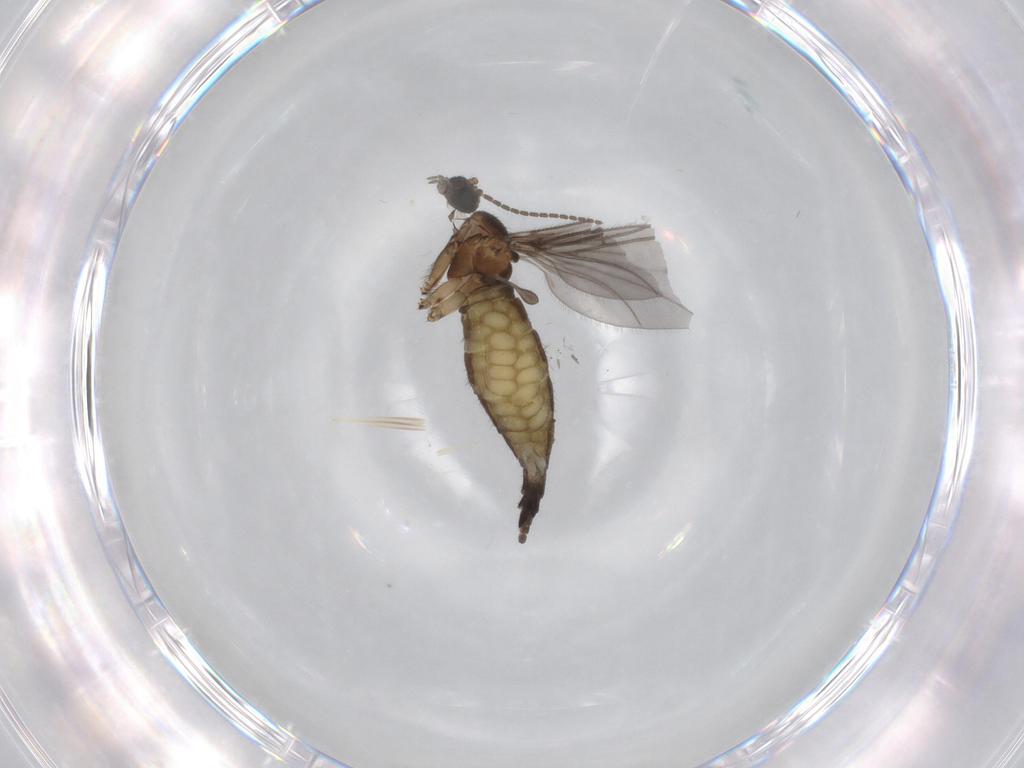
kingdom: Animalia
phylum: Arthropoda
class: Insecta
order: Diptera
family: Sciaridae
